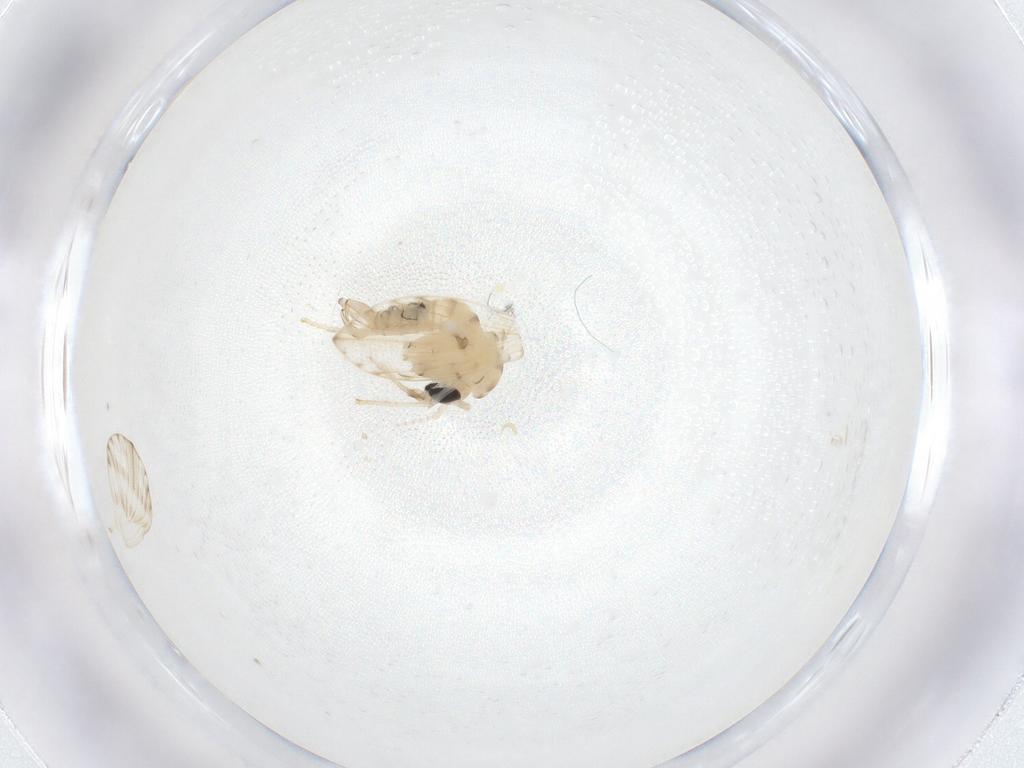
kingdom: Animalia
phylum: Arthropoda
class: Insecta
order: Diptera
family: Psychodidae
